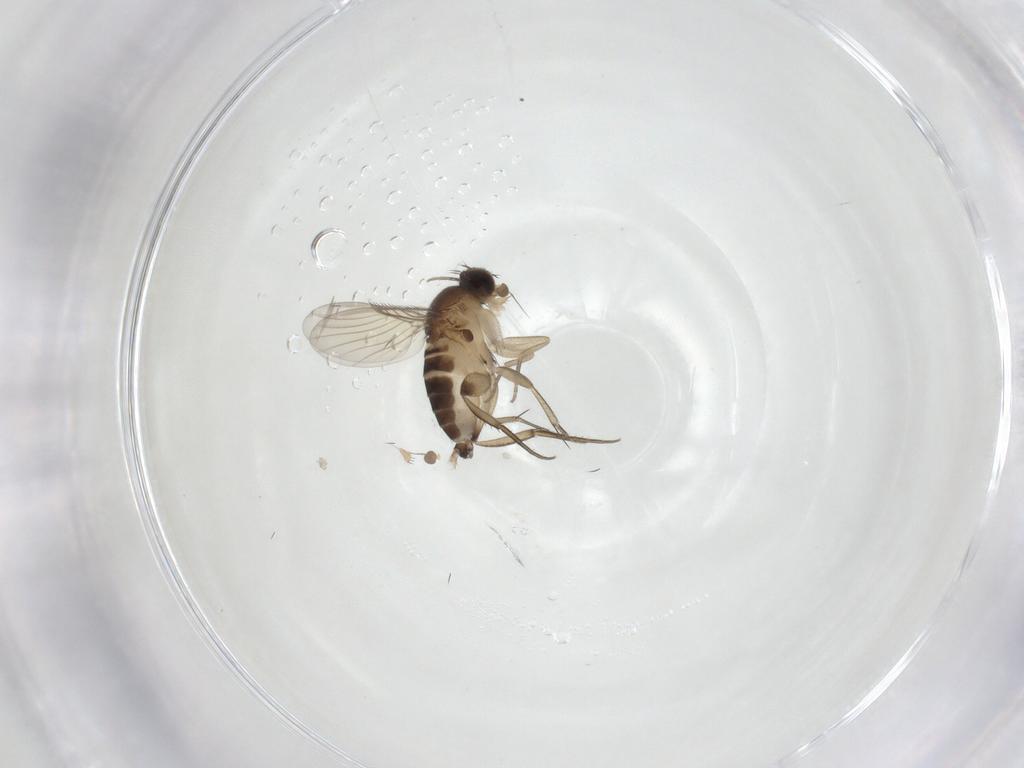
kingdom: Animalia
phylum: Arthropoda
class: Insecta
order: Diptera
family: Phoridae
